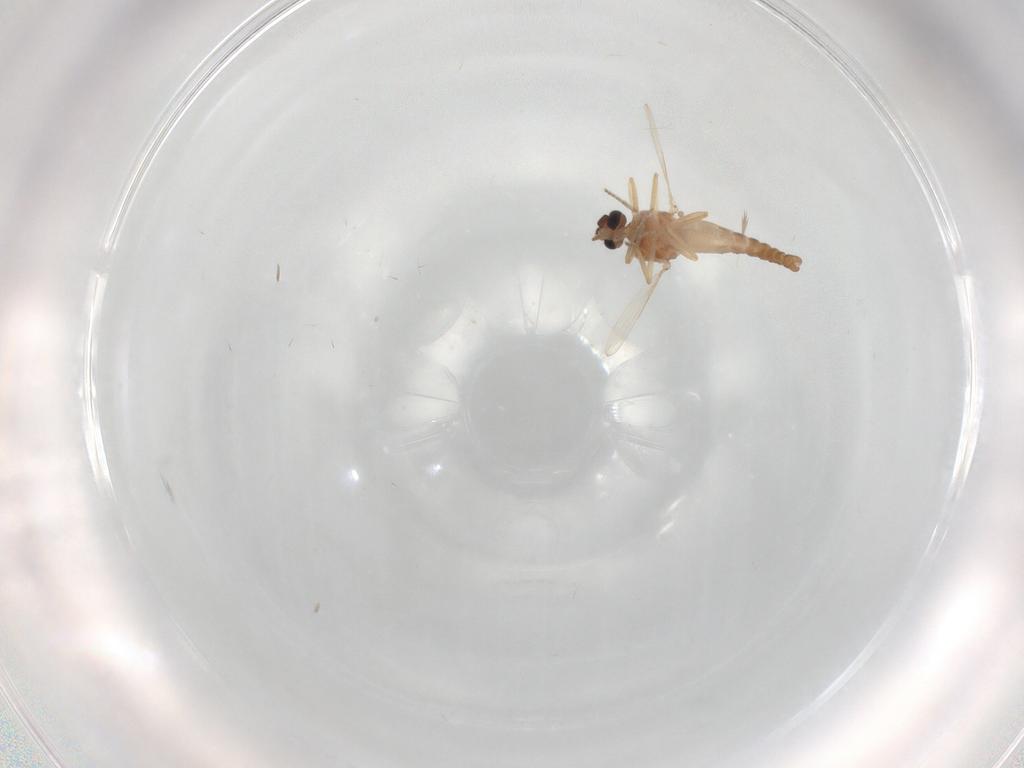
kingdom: Animalia
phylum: Arthropoda
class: Insecta
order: Diptera
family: Ceratopogonidae
